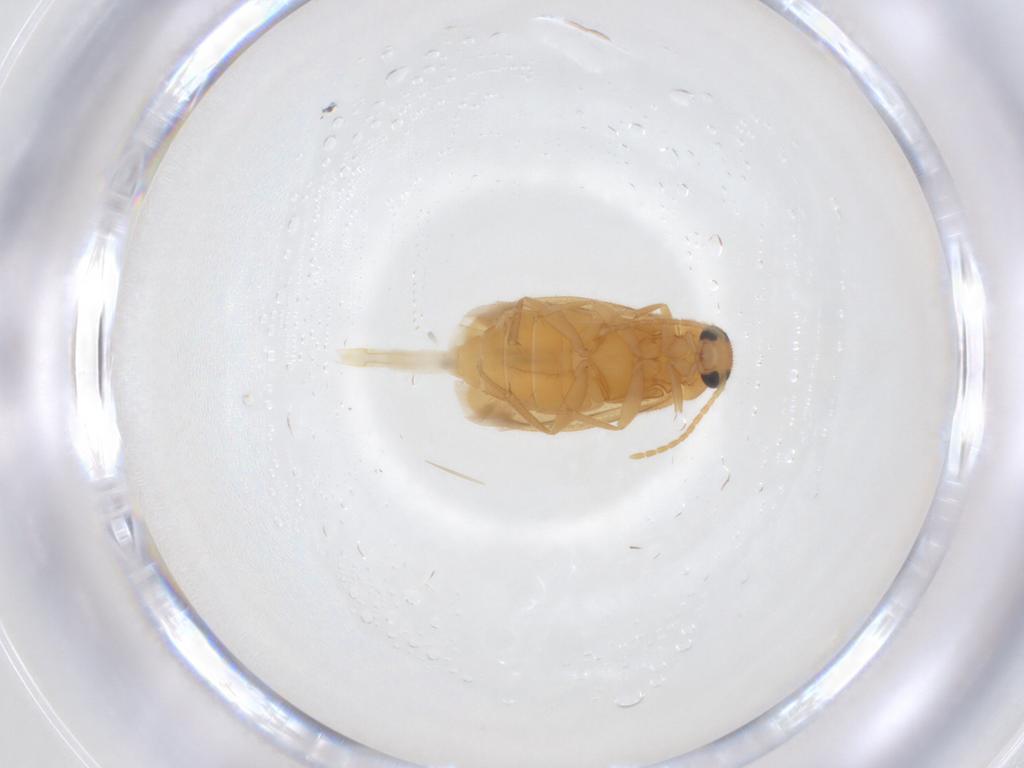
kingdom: Animalia
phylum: Arthropoda
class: Insecta
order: Coleoptera
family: Scraptiidae
